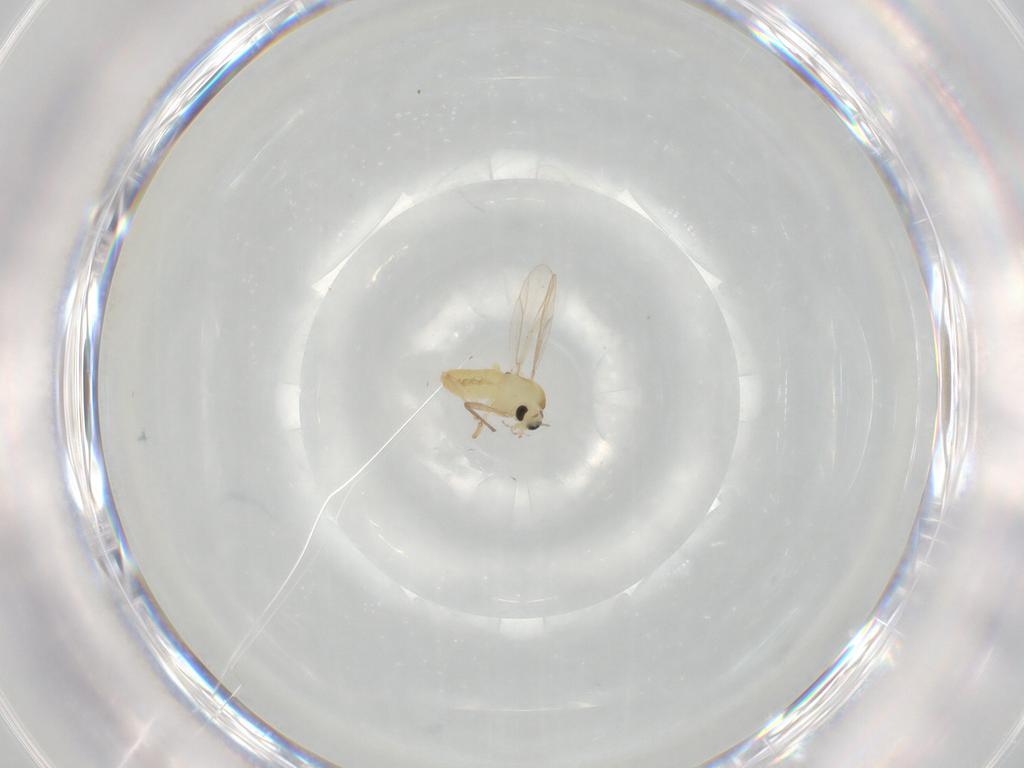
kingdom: Animalia
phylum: Arthropoda
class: Insecta
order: Diptera
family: Chironomidae
